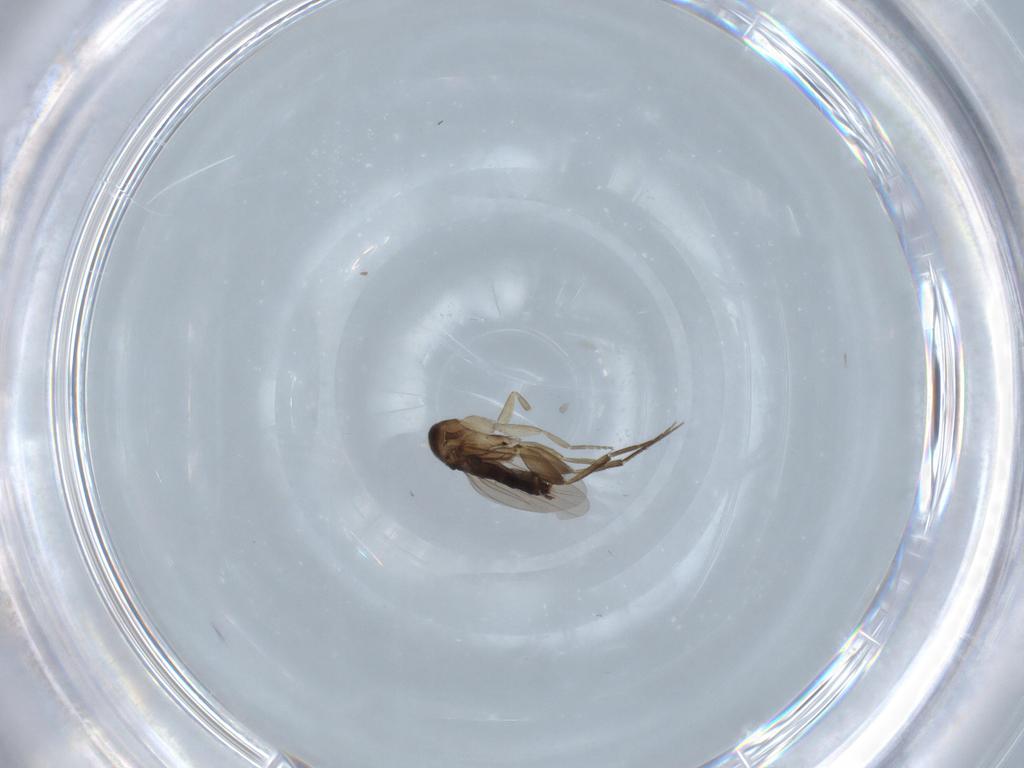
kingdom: Animalia
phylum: Arthropoda
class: Insecta
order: Diptera
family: Phoridae
